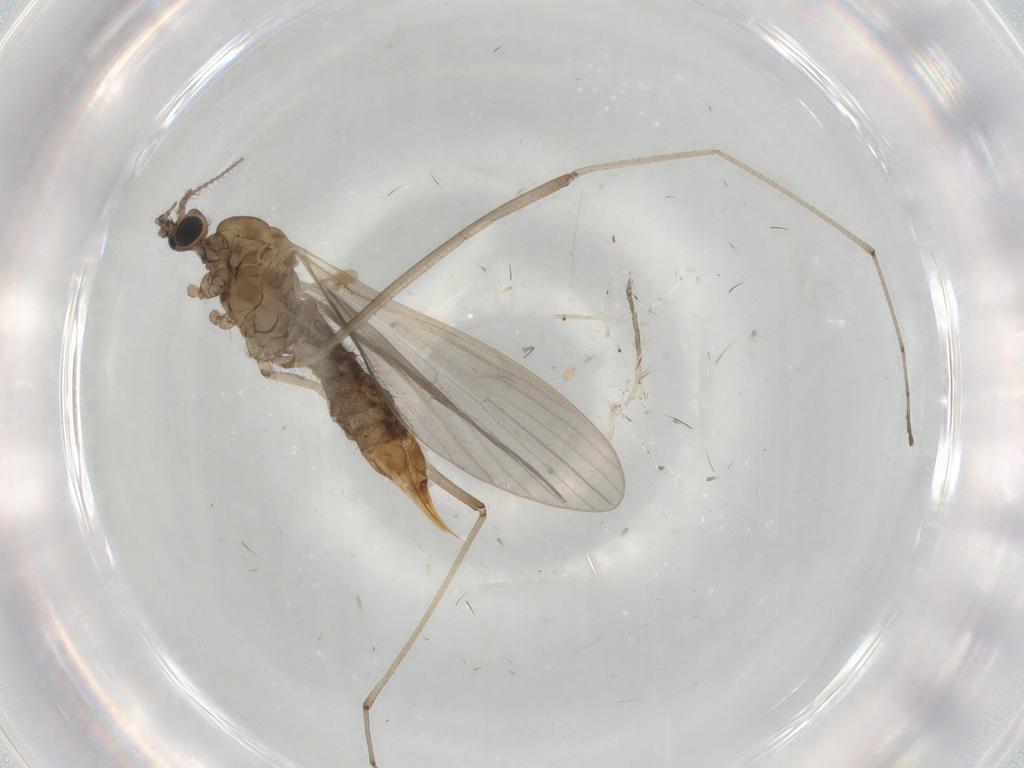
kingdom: Animalia
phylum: Arthropoda
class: Insecta
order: Diptera
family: Limoniidae
